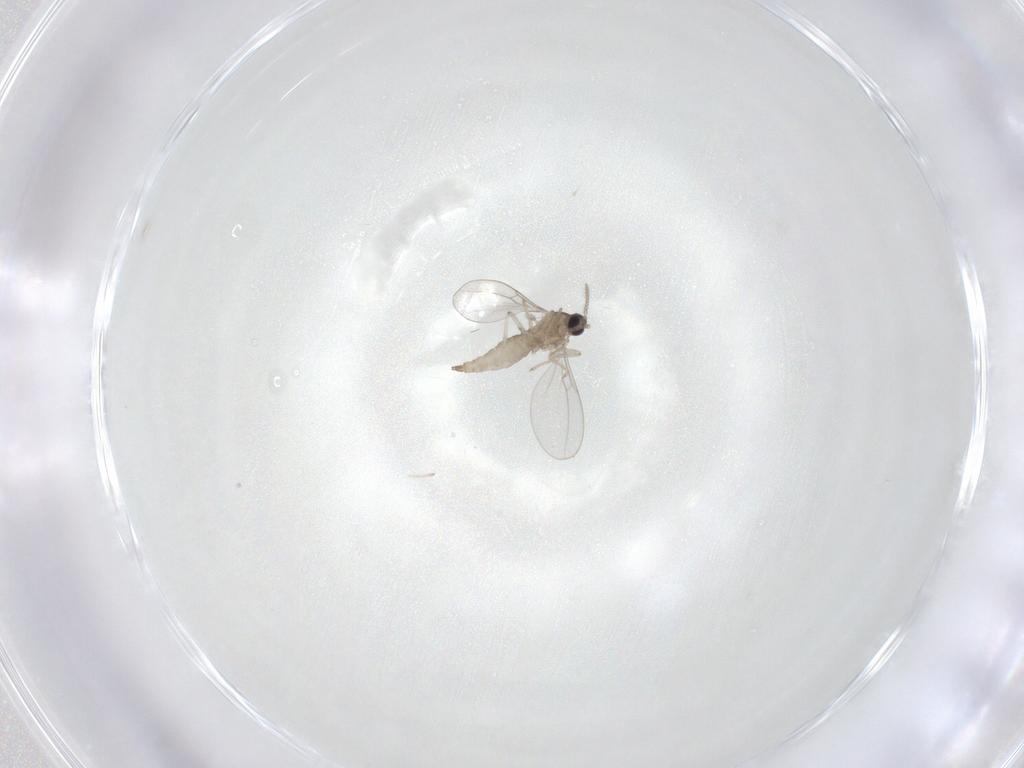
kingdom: Animalia
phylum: Arthropoda
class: Insecta
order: Diptera
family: Cecidomyiidae
